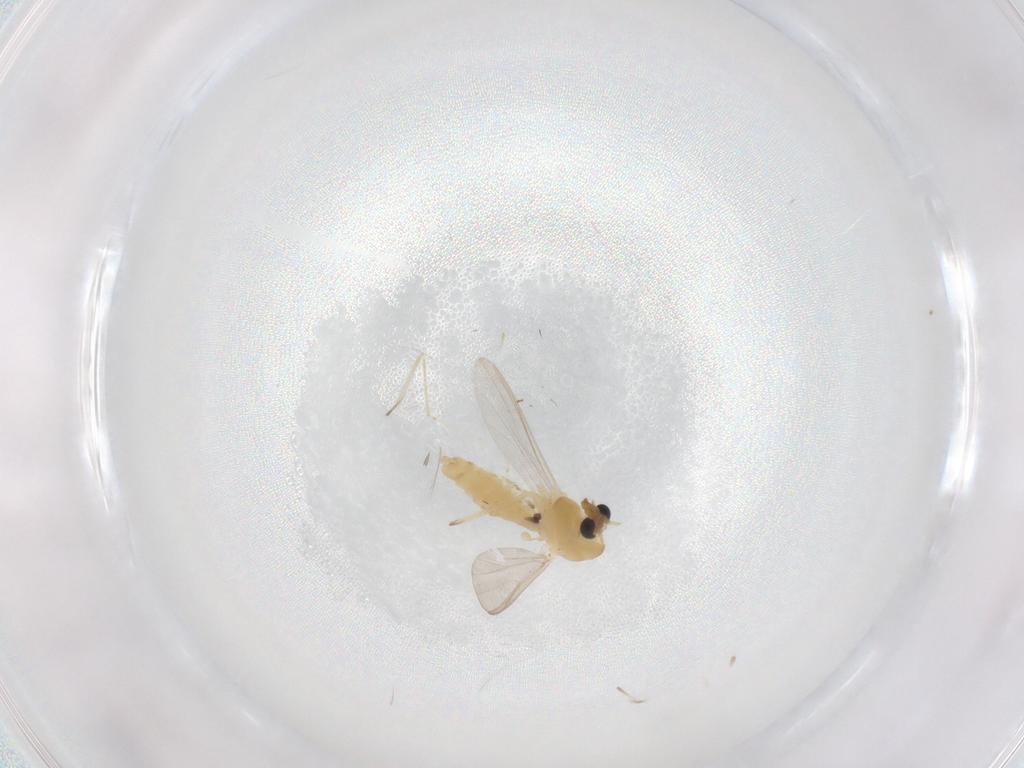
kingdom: Animalia
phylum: Arthropoda
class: Insecta
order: Diptera
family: Chironomidae
